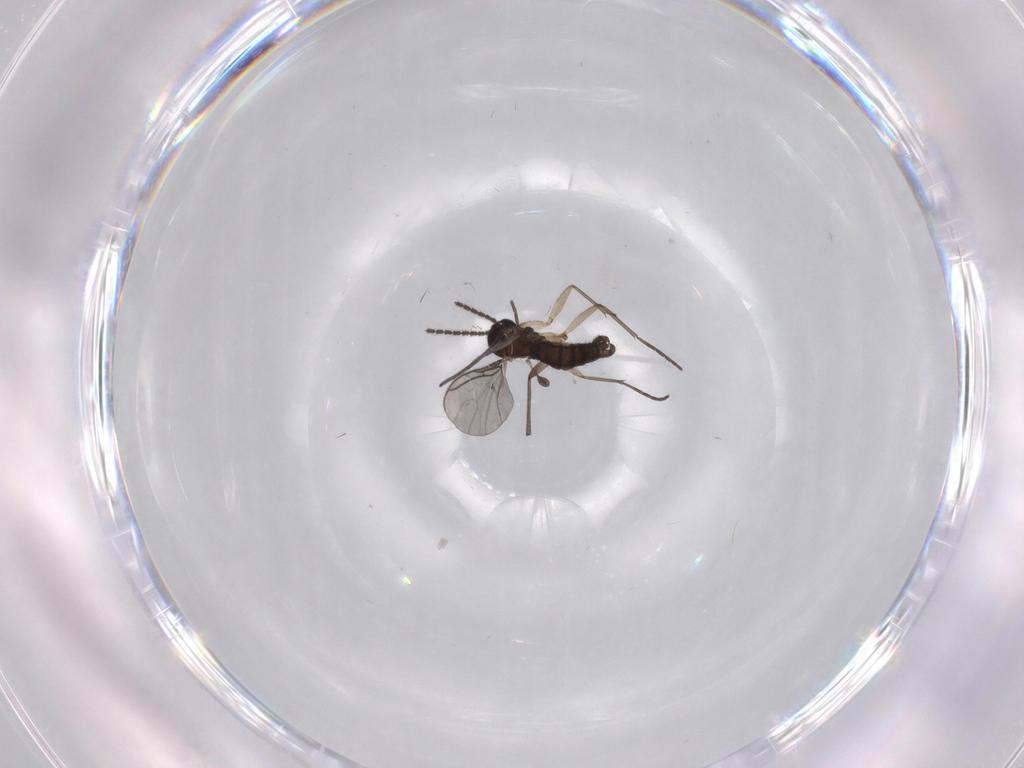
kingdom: Animalia
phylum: Arthropoda
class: Insecta
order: Diptera
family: Sciaridae
